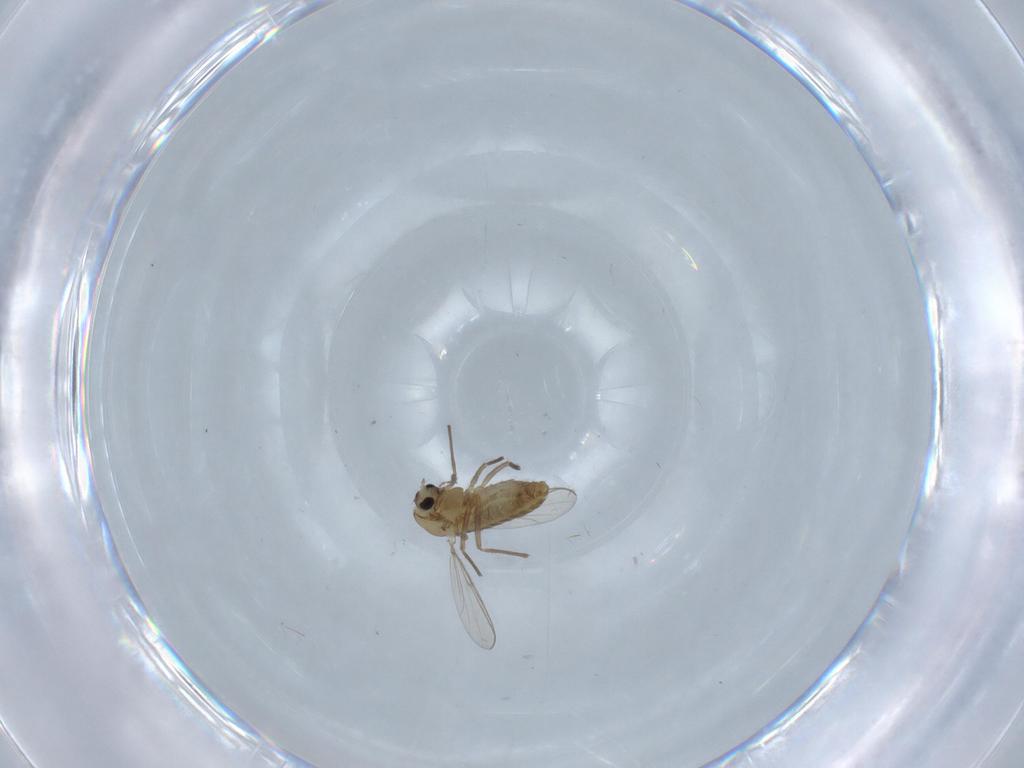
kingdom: Animalia
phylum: Arthropoda
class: Insecta
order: Diptera
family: Chironomidae
